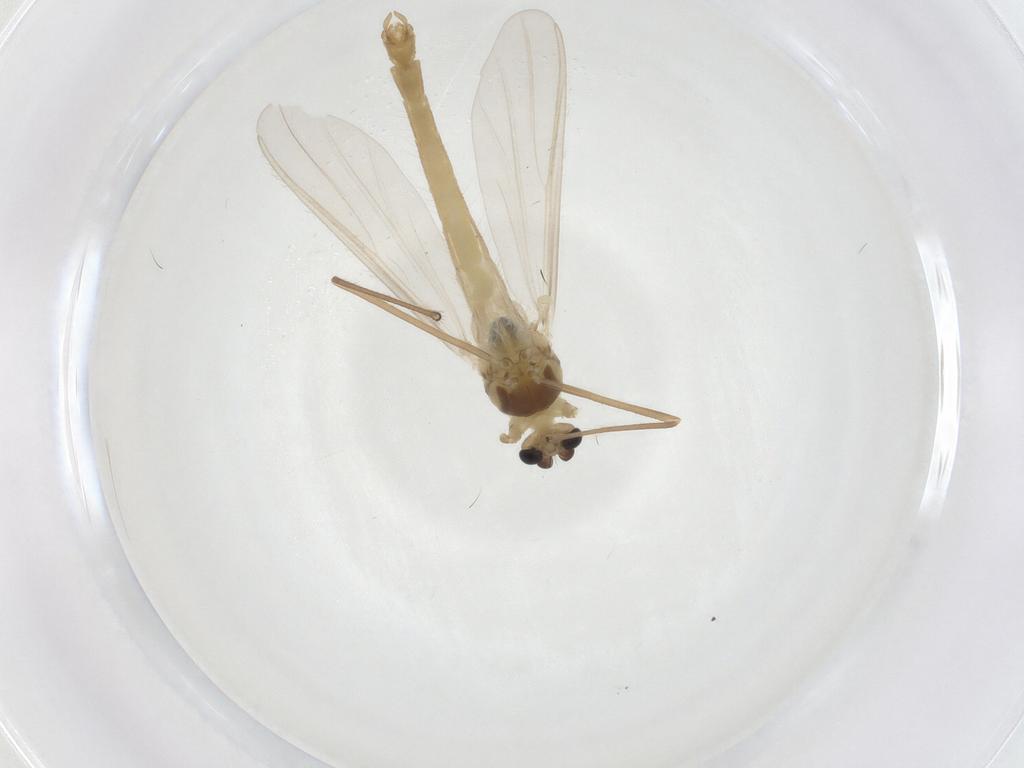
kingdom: Animalia
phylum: Arthropoda
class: Insecta
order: Diptera
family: Chironomidae
